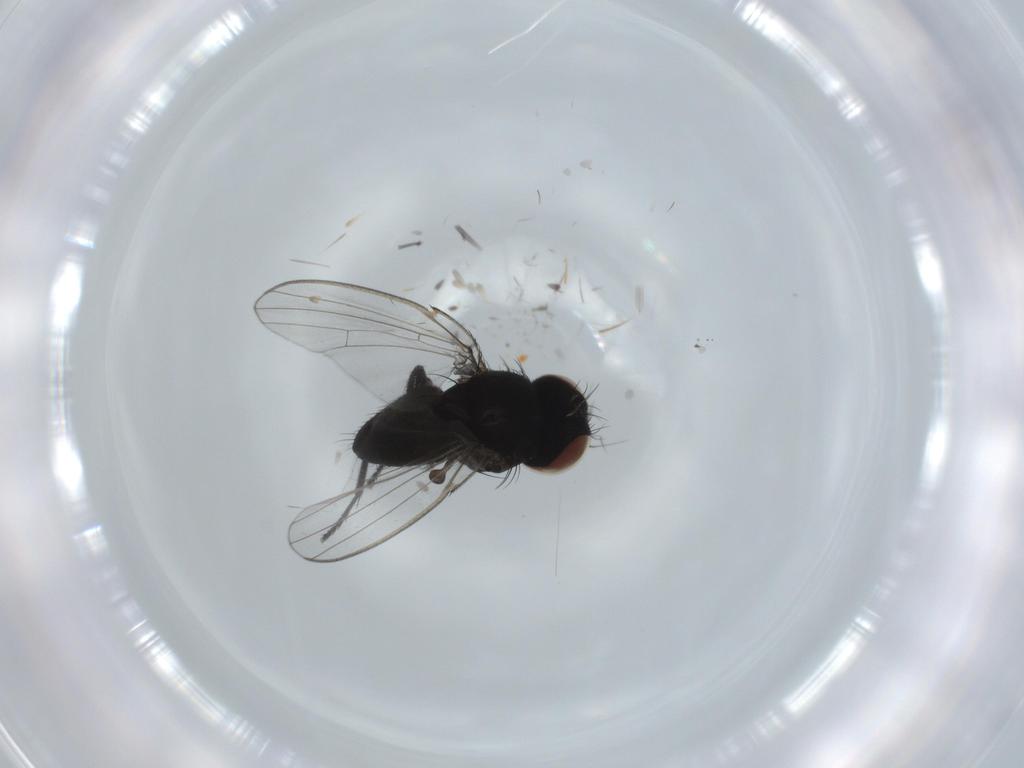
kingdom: Animalia
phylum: Arthropoda
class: Insecta
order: Diptera
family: Milichiidae
